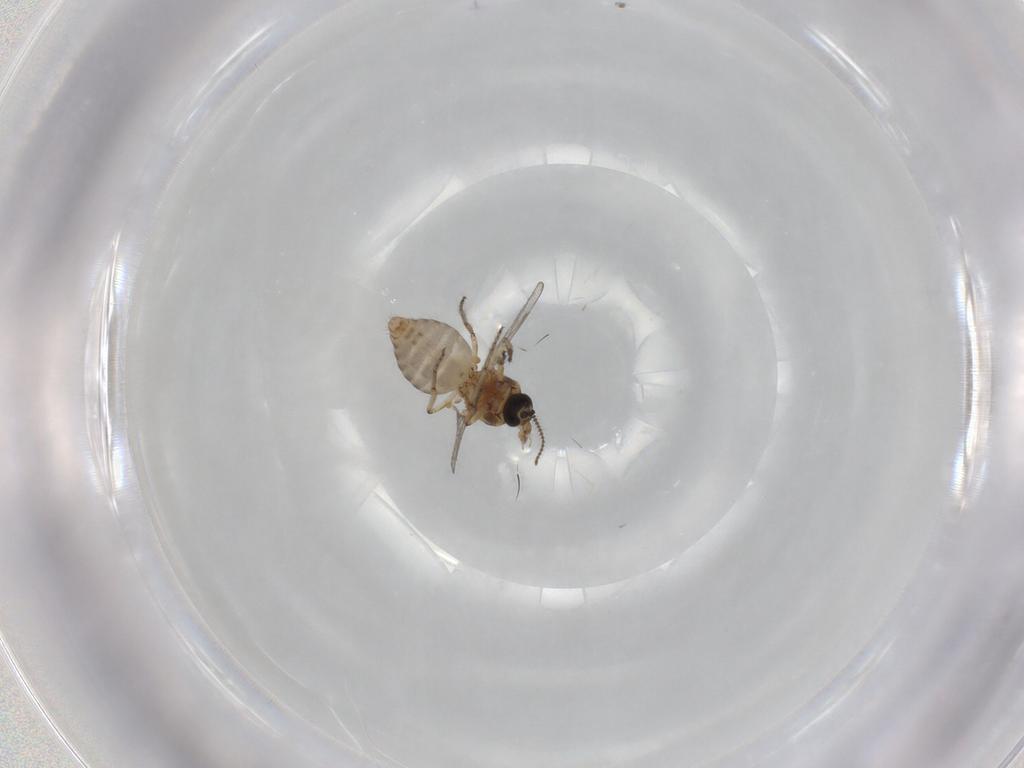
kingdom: Animalia
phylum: Arthropoda
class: Insecta
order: Diptera
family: Ceratopogonidae
